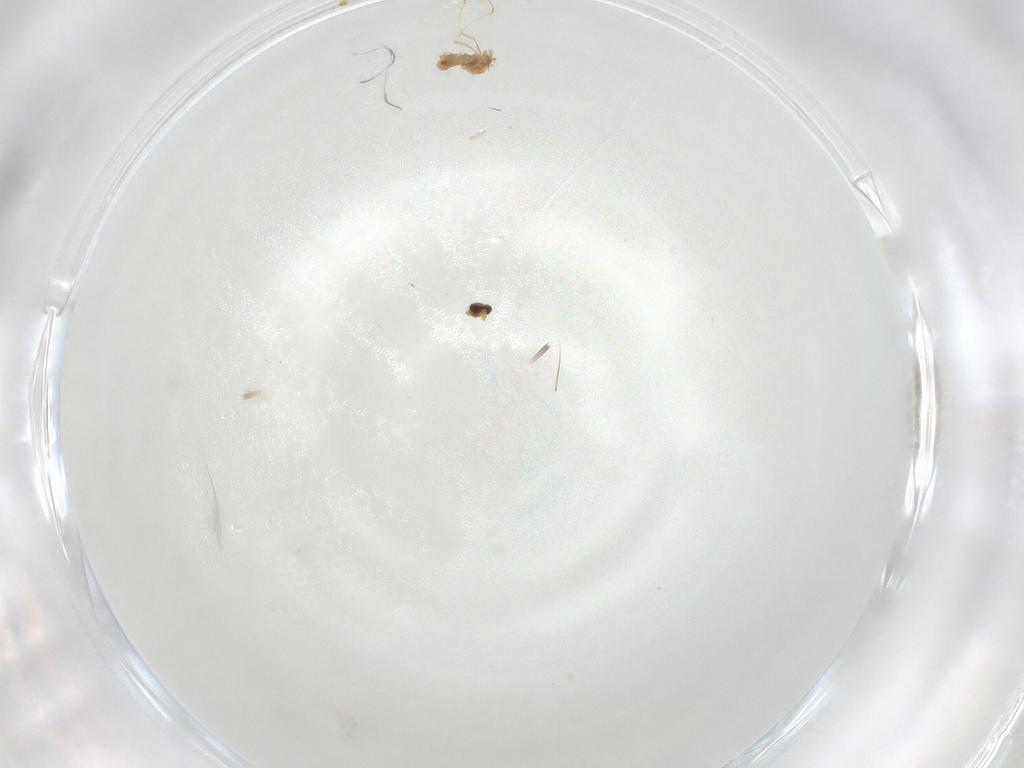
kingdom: Animalia
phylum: Arthropoda
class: Insecta
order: Diptera
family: Cecidomyiidae
